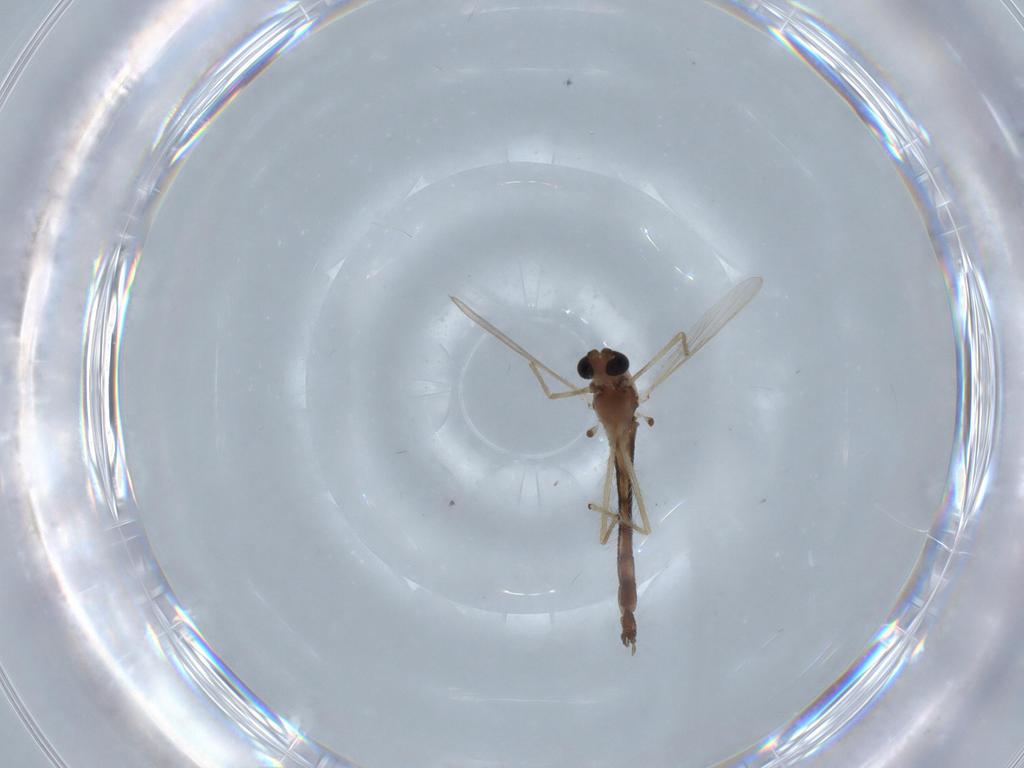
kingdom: Animalia
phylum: Arthropoda
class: Insecta
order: Diptera
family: Chironomidae
